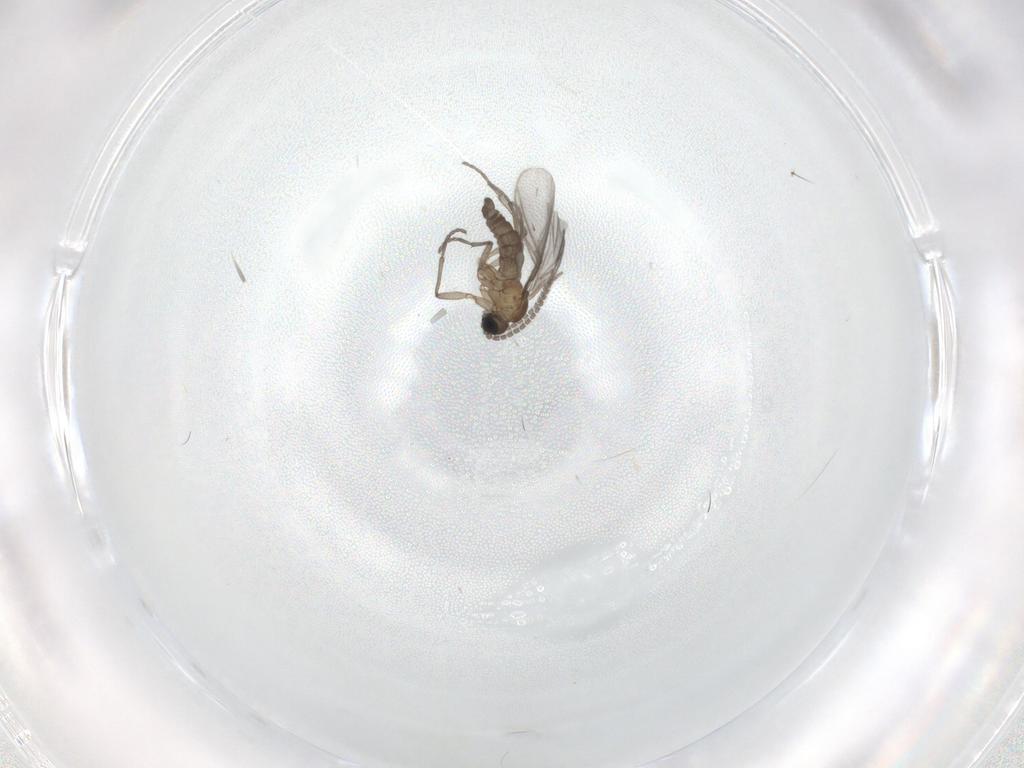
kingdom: Animalia
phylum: Arthropoda
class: Insecta
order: Diptera
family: Sciaridae
